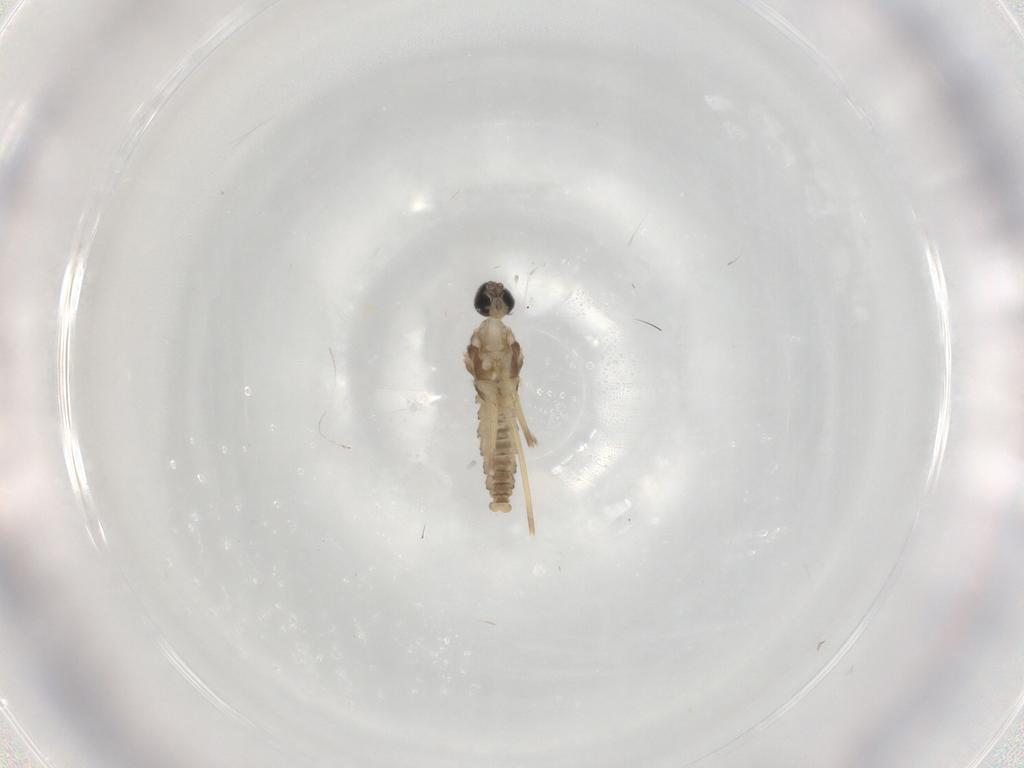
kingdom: Animalia
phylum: Arthropoda
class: Insecta
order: Diptera
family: Cecidomyiidae
